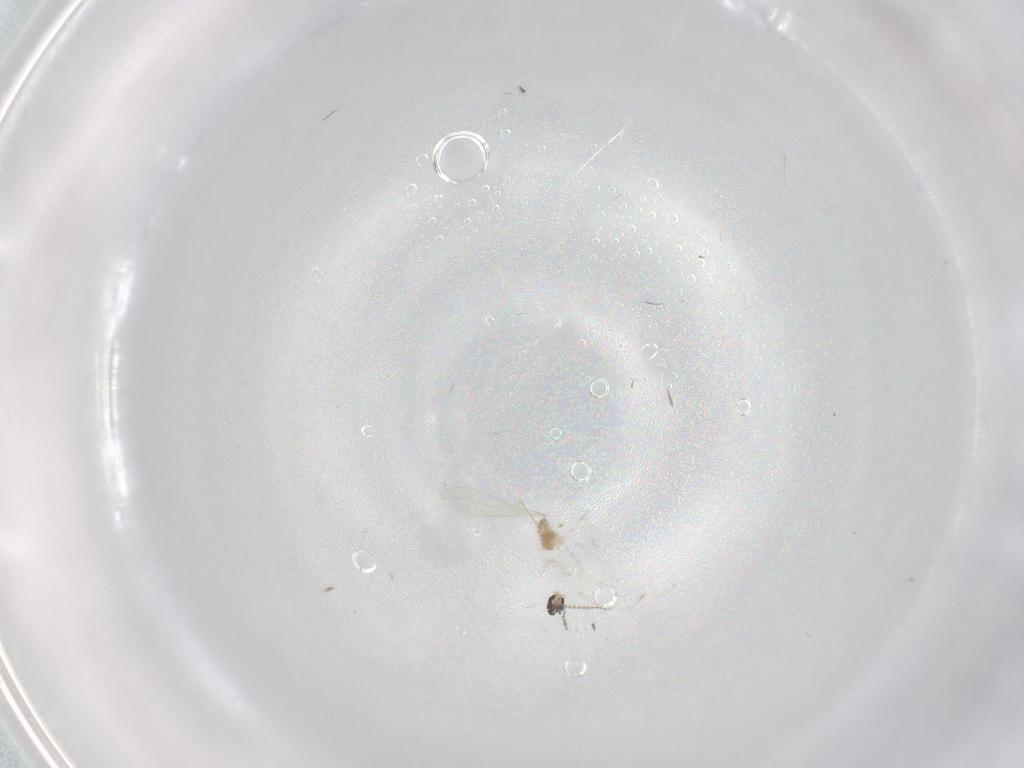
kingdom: Animalia
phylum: Arthropoda
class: Insecta
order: Diptera
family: Cecidomyiidae
